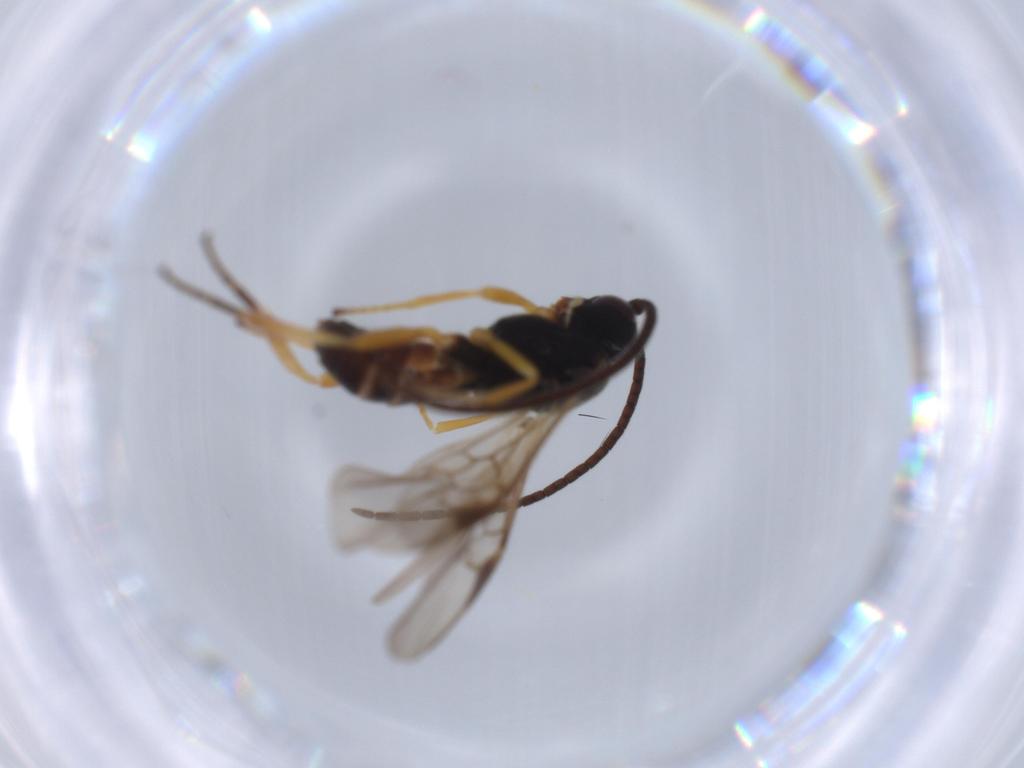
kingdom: Animalia
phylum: Arthropoda
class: Insecta
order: Hymenoptera
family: Braconidae
